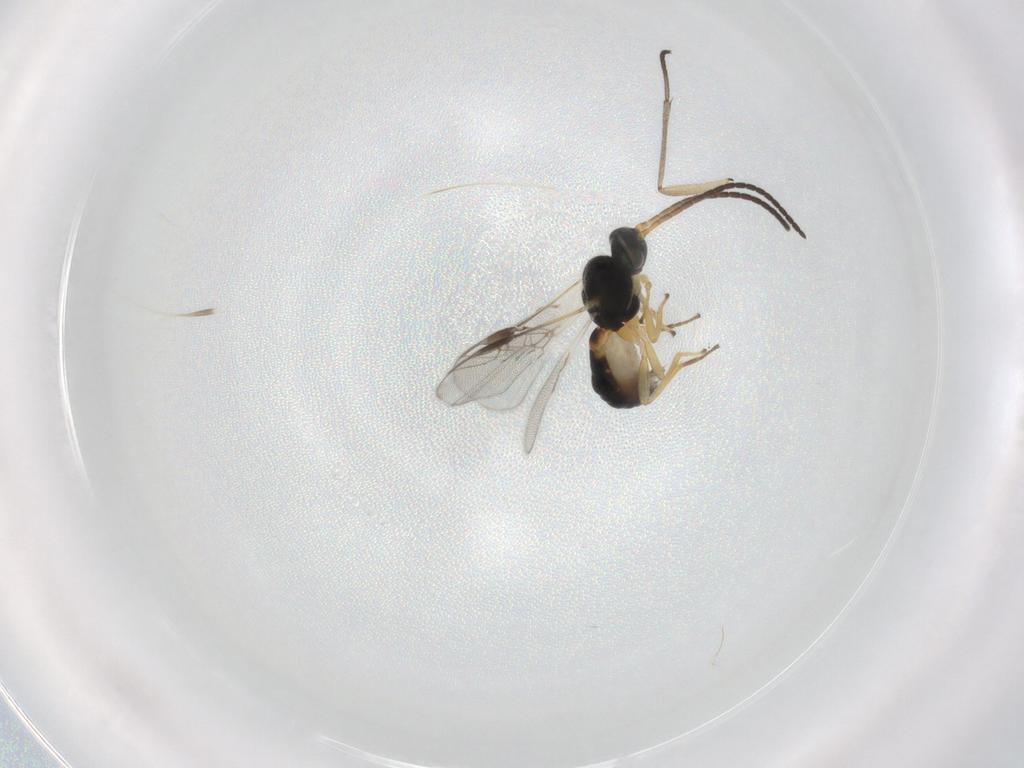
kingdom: Animalia
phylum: Arthropoda
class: Insecta
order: Hymenoptera
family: Braconidae
